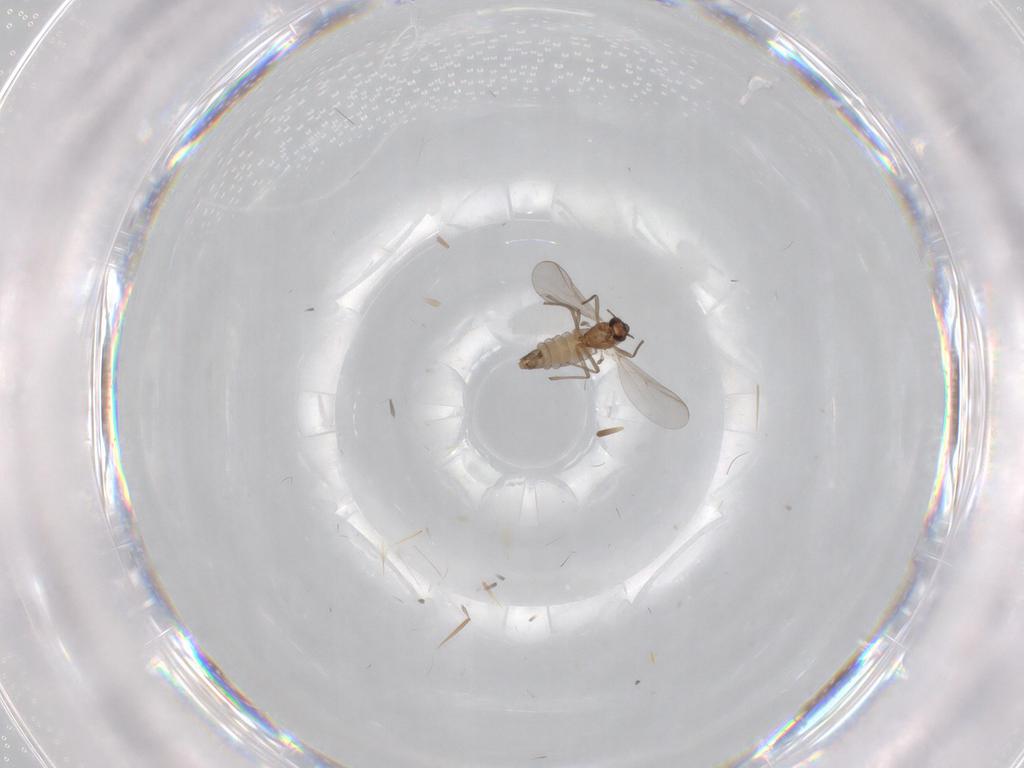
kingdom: Animalia
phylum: Arthropoda
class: Insecta
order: Diptera
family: Chironomidae
